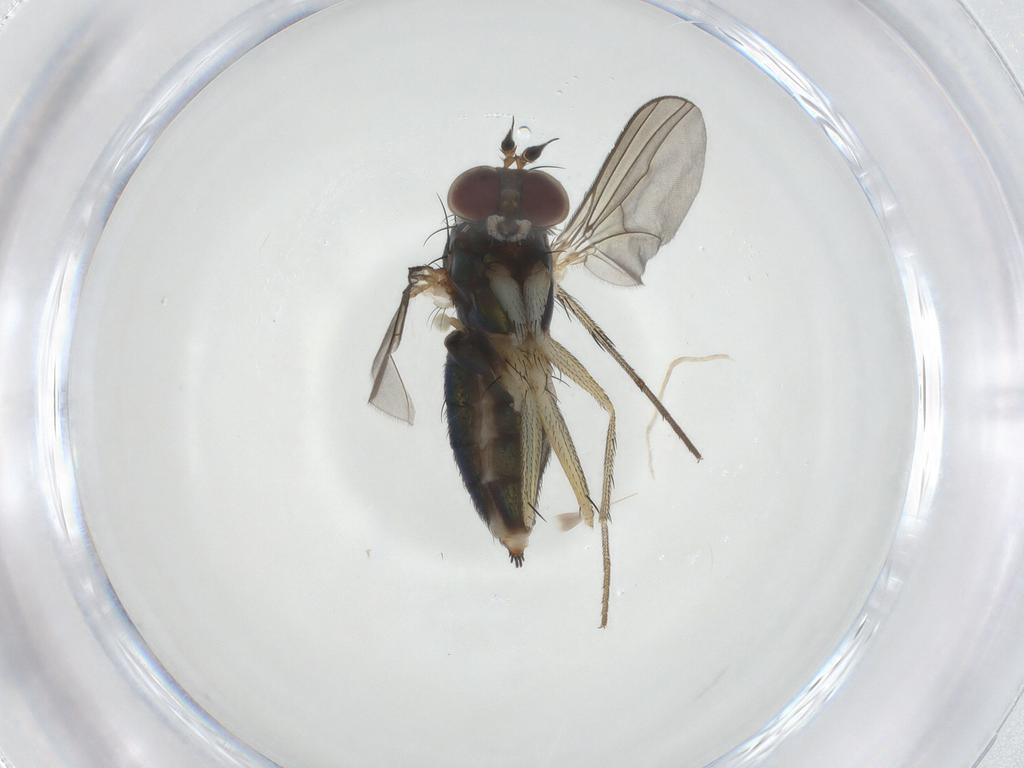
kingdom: Animalia
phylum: Arthropoda
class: Insecta
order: Diptera
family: Dolichopodidae
